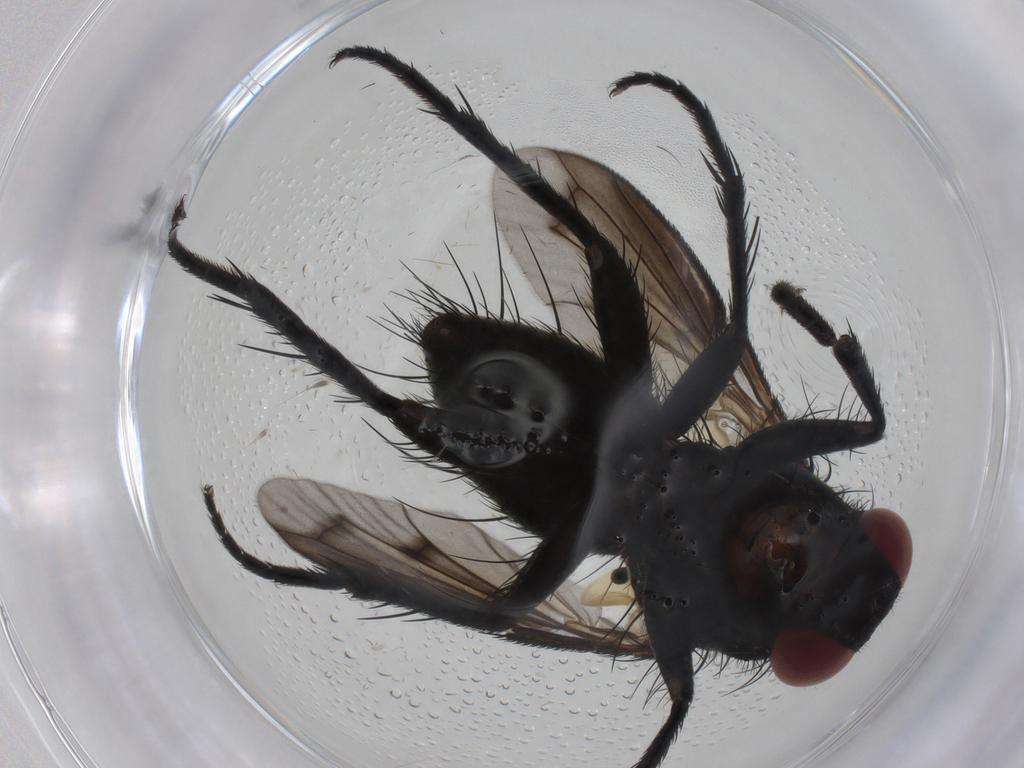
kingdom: Animalia
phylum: Arthropoda
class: Insecta
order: Diptera
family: Tachinidae
